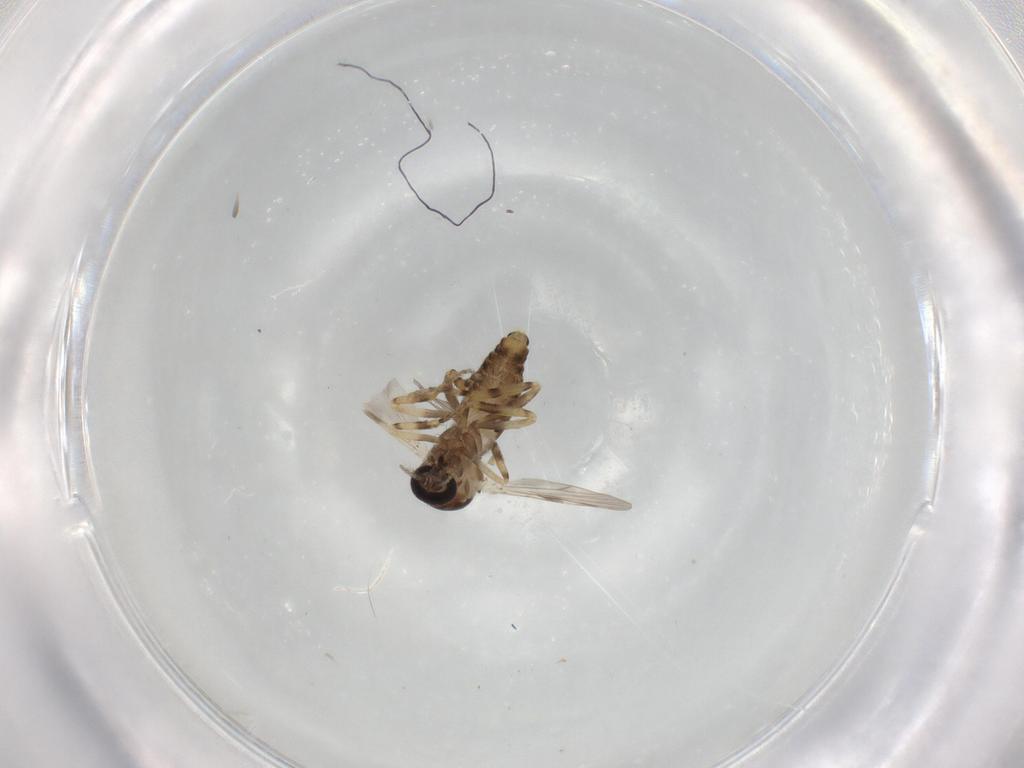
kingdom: Animalia
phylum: Arthropoda
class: Insecta
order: Diptera
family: Ceratopogonidae
